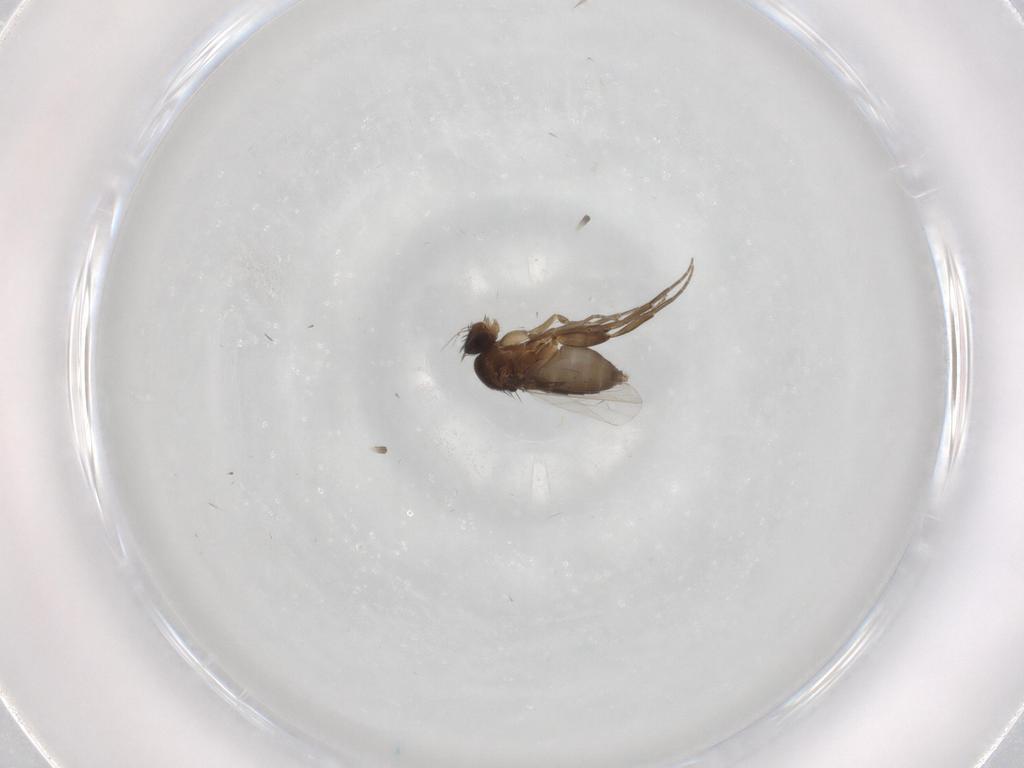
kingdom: Animalia
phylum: Arthropoda
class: Insecta
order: Diptera
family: Phoridae
